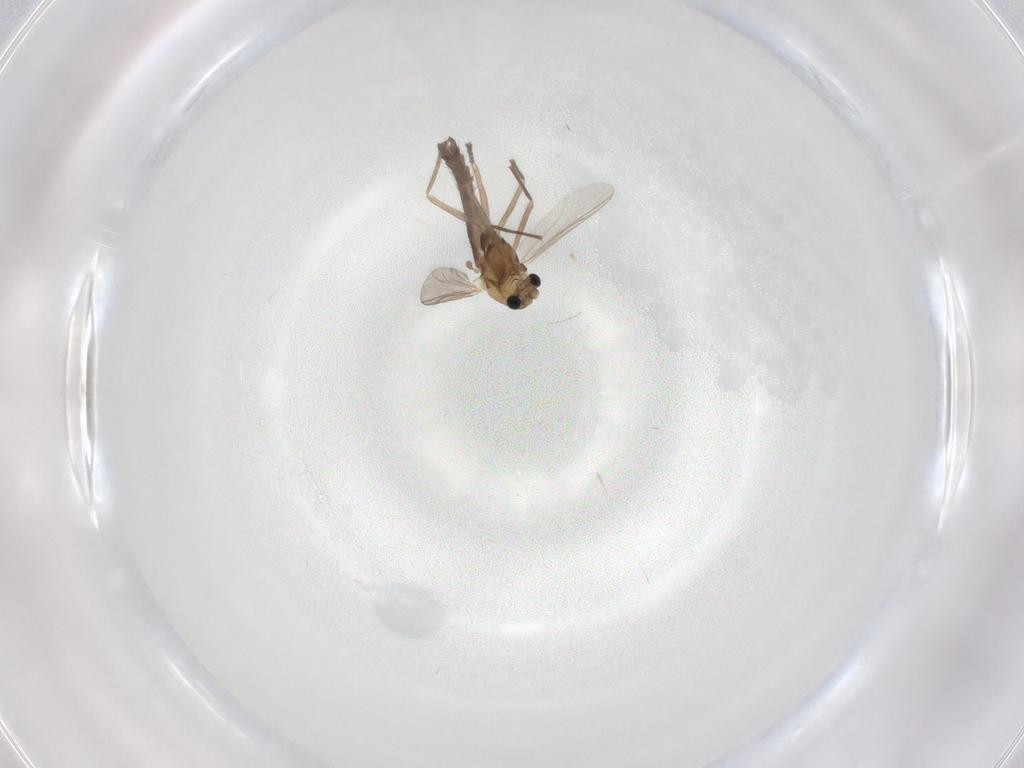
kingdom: Animalia
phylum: Arthropoda
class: Insecta
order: Diptera
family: Chironomidae
